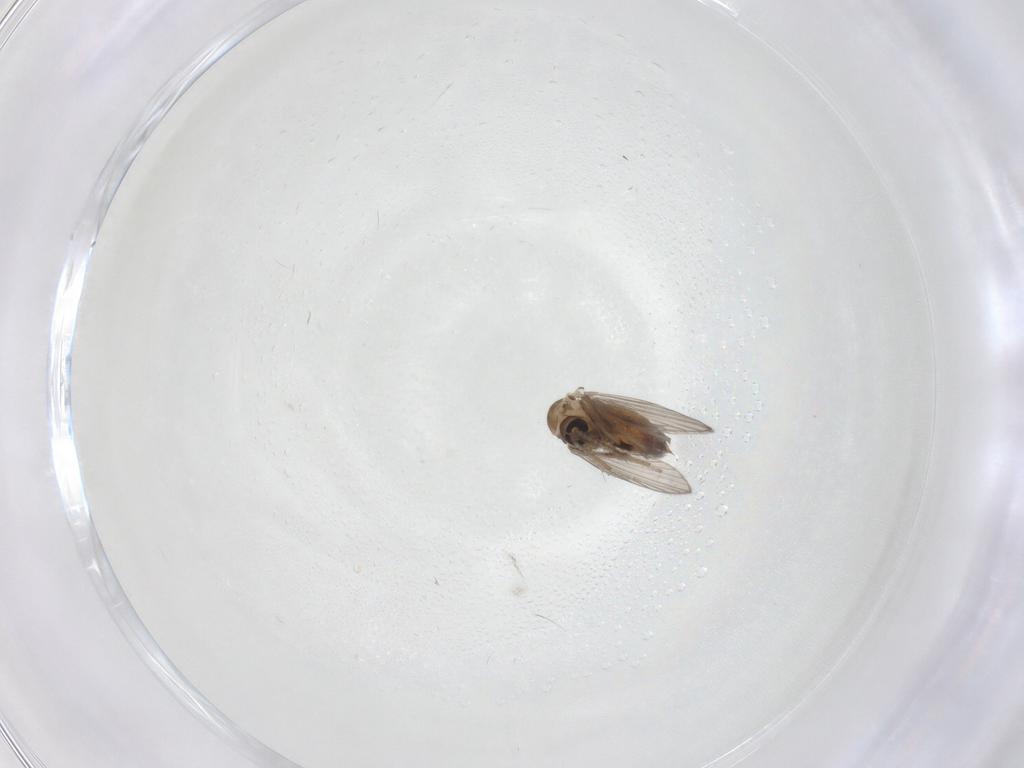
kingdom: Animalia
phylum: Arthropoda
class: Insecta
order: Diptera
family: Psychodidae
